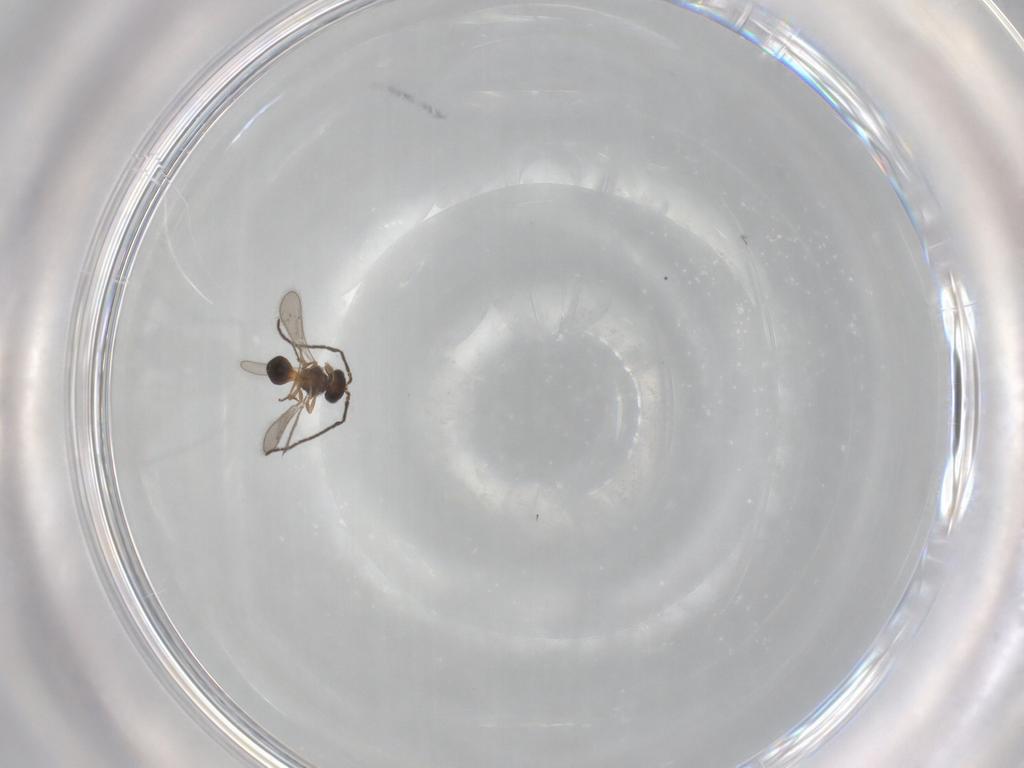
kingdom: Animalia
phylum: Arthropoda
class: Insecta
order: Hymenoptera
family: Scelionidae
